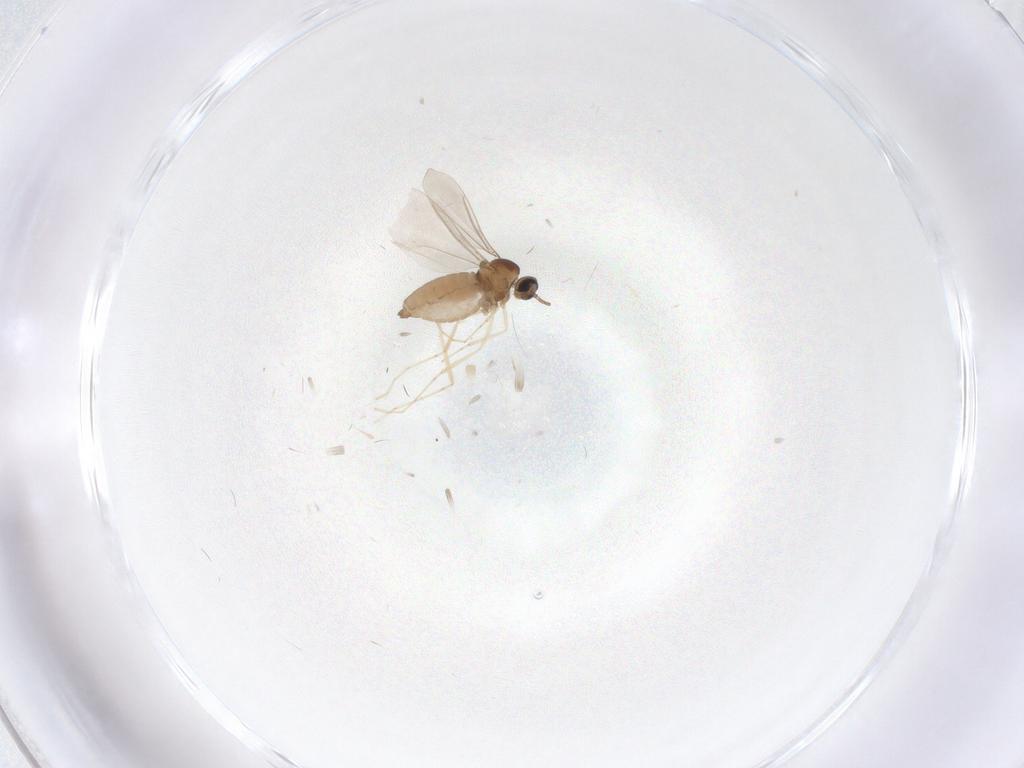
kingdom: Animalia
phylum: Arthropoda
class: Insecta
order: Diptera
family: Cecidomyiidae
